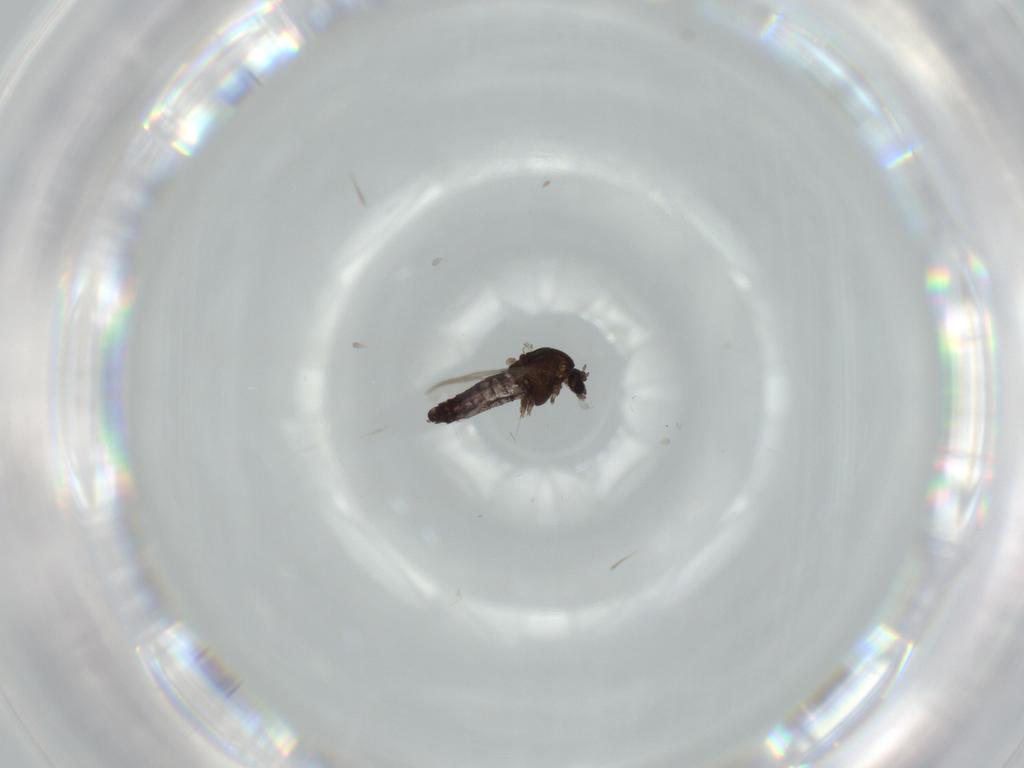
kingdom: Animalia
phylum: Arthropoda
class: Insecta
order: Diptera
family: Phoridae
